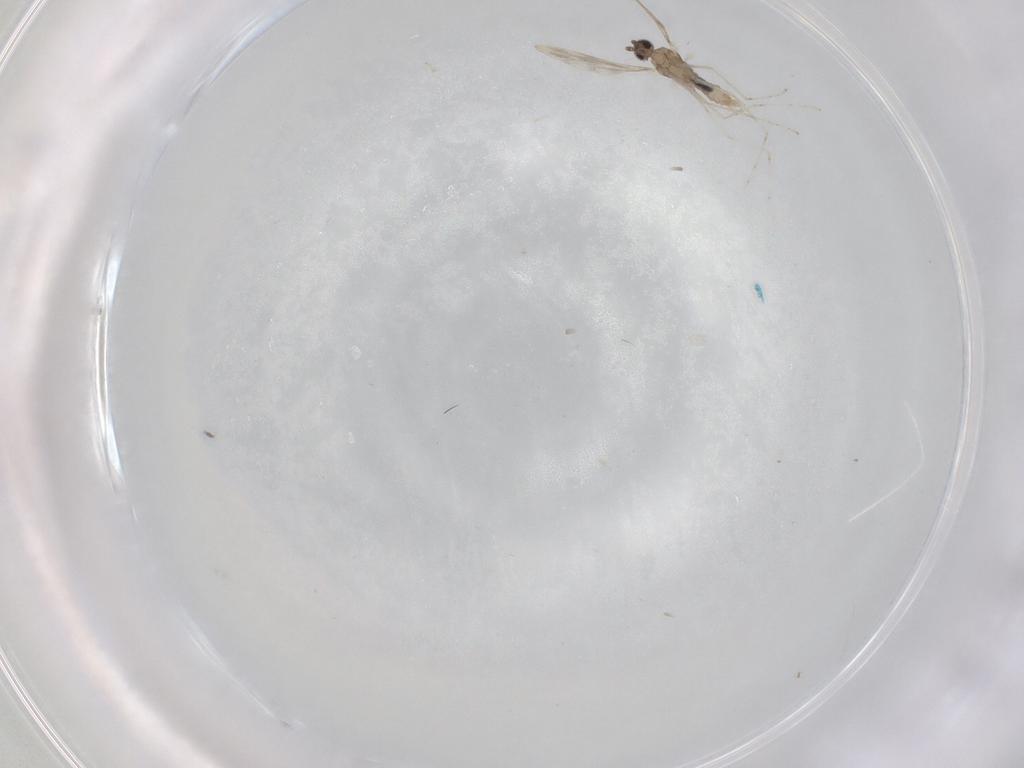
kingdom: Animalia
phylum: Arthropoda
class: Insecta
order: Diptera
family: Cecidomyiidae
